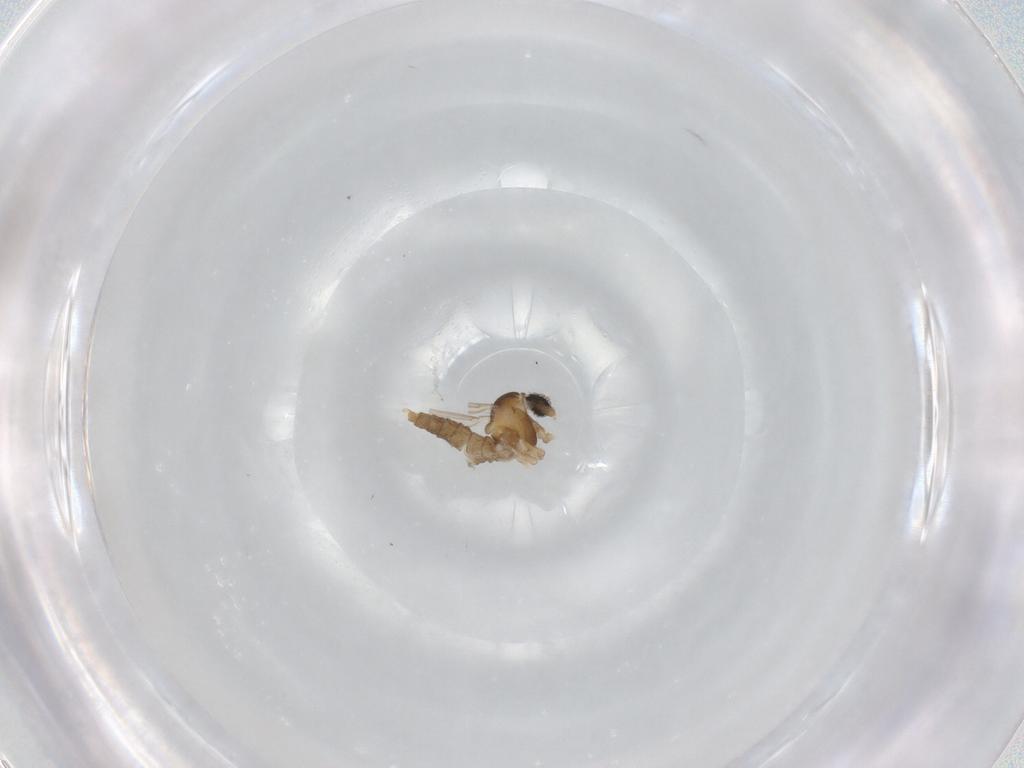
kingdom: Animalia
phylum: Arthropoda
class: Insecta
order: Diptera
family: Cecidomyiidae
